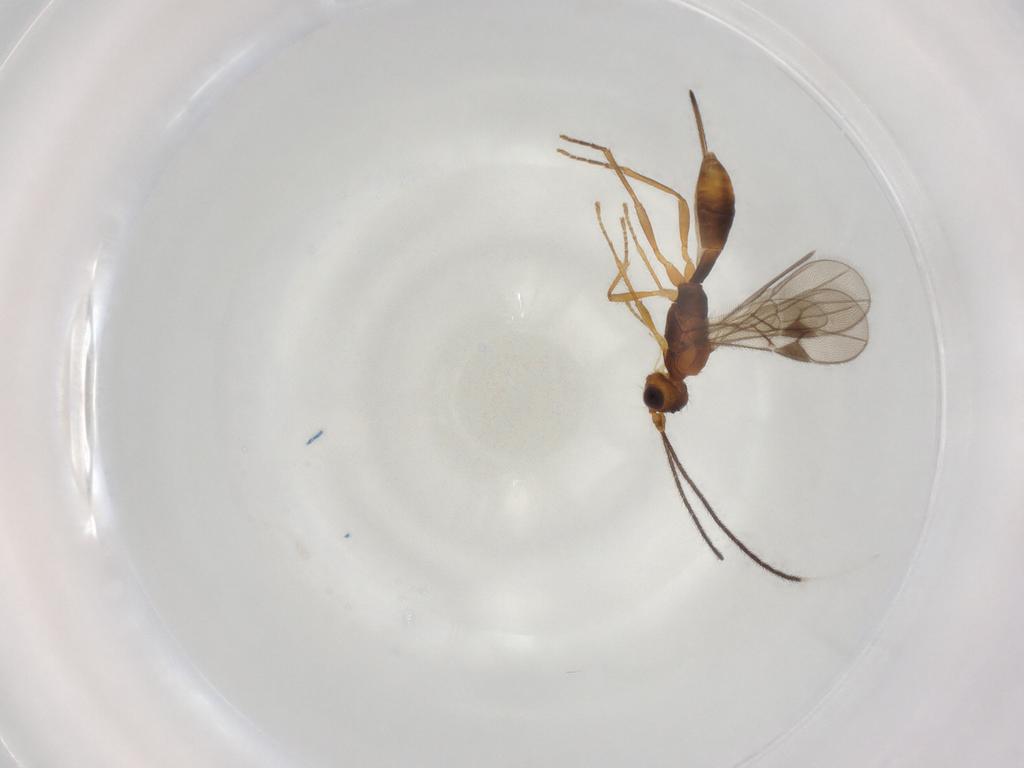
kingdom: Animalia
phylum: Arthropoda
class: Insecta
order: Hymenoptera
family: Braconidae
